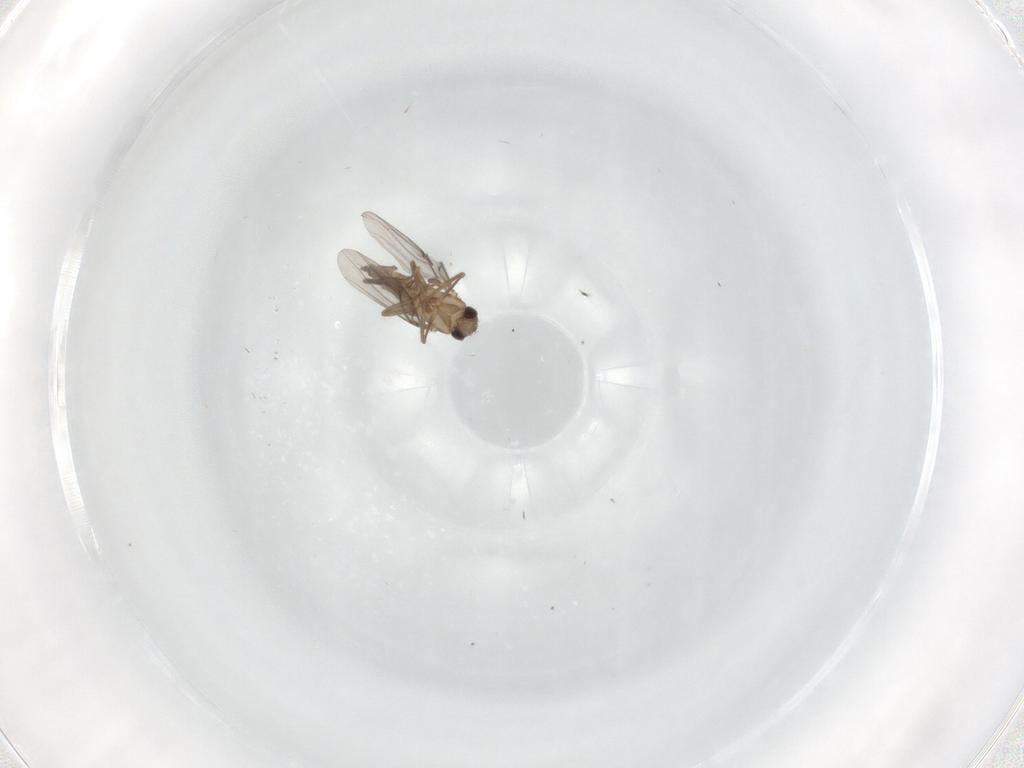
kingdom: Animalia
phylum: Arthropoda
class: Insecta
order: Diptera
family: Psychodidae
